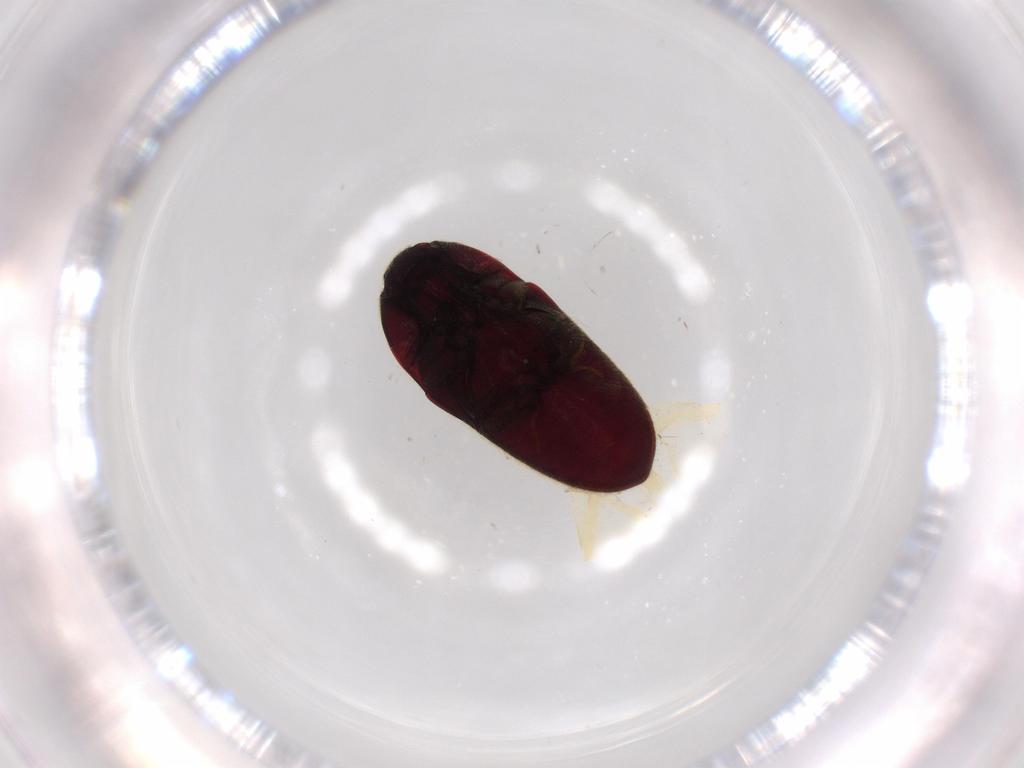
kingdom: Animalia
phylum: Arthropoda
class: Insecta
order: Coleoptera
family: Throscidae
